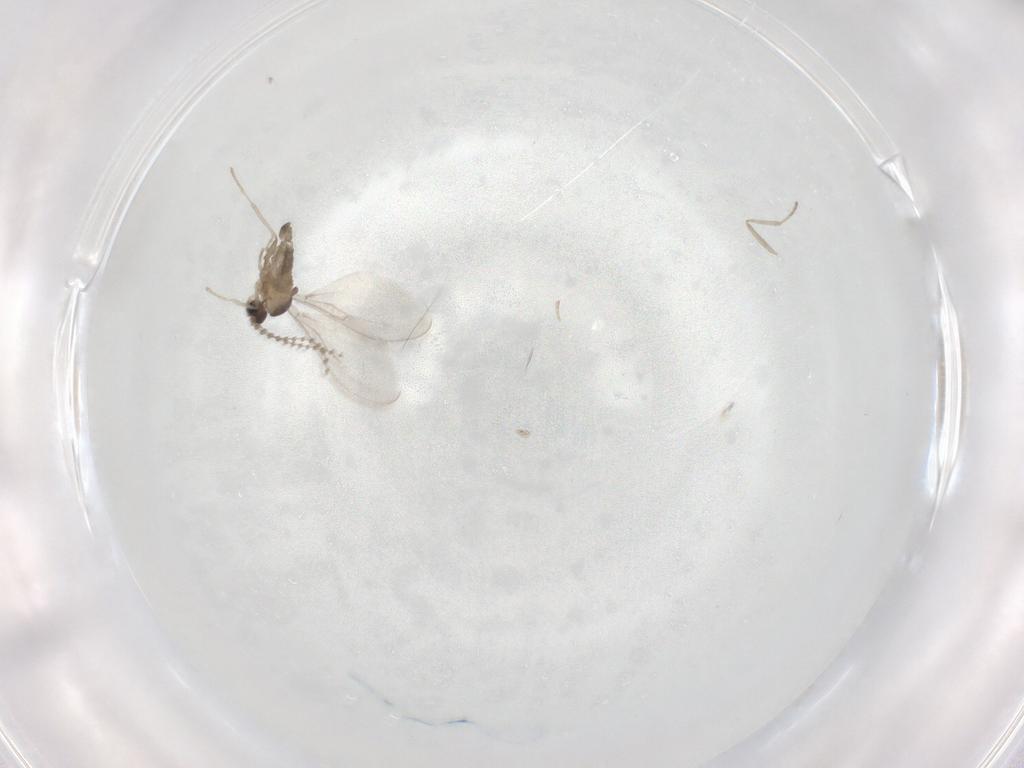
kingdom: Animalia
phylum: Arthropoda
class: Insecta
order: Diptera
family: Cecidomyiidae
